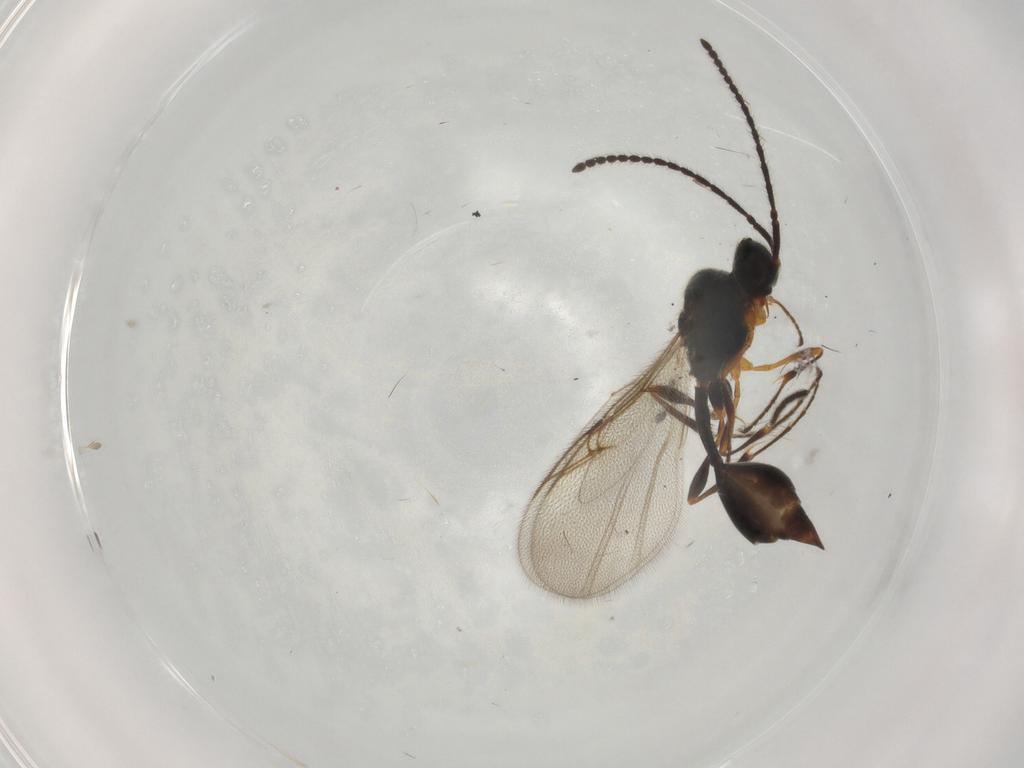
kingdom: Animalia
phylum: Arthropoda
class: Insecta
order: Hymenoptera
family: Diapriidae
